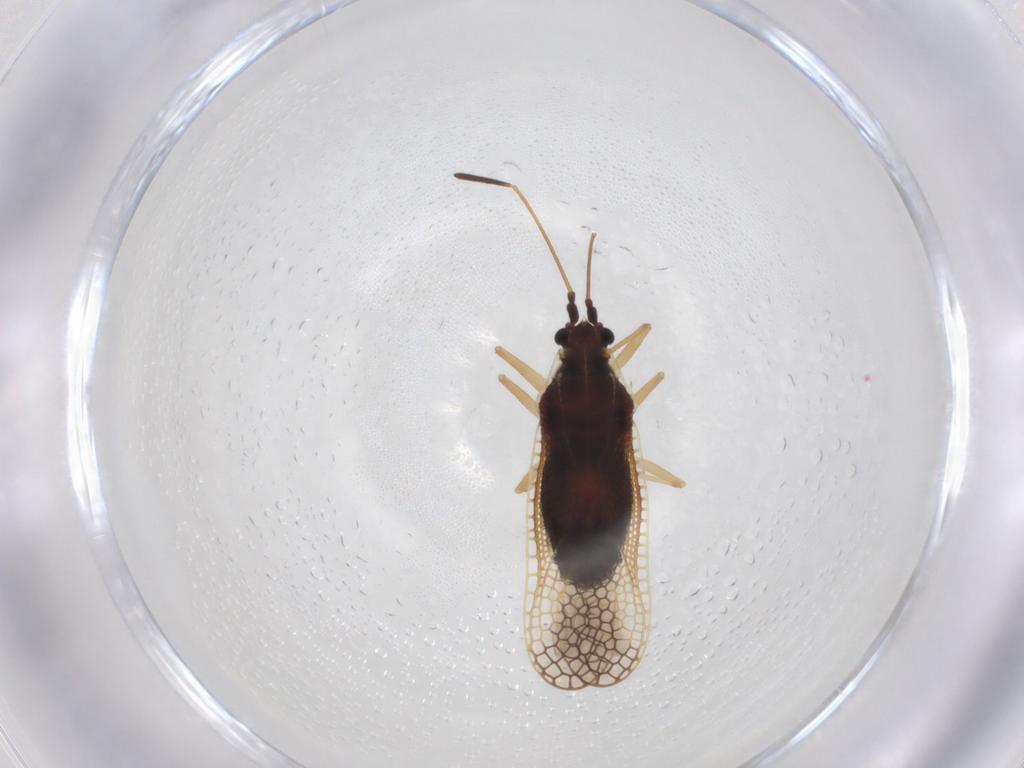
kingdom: Animalia
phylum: Arthropoda
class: Insecta
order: Hemiptera
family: Tingidae
